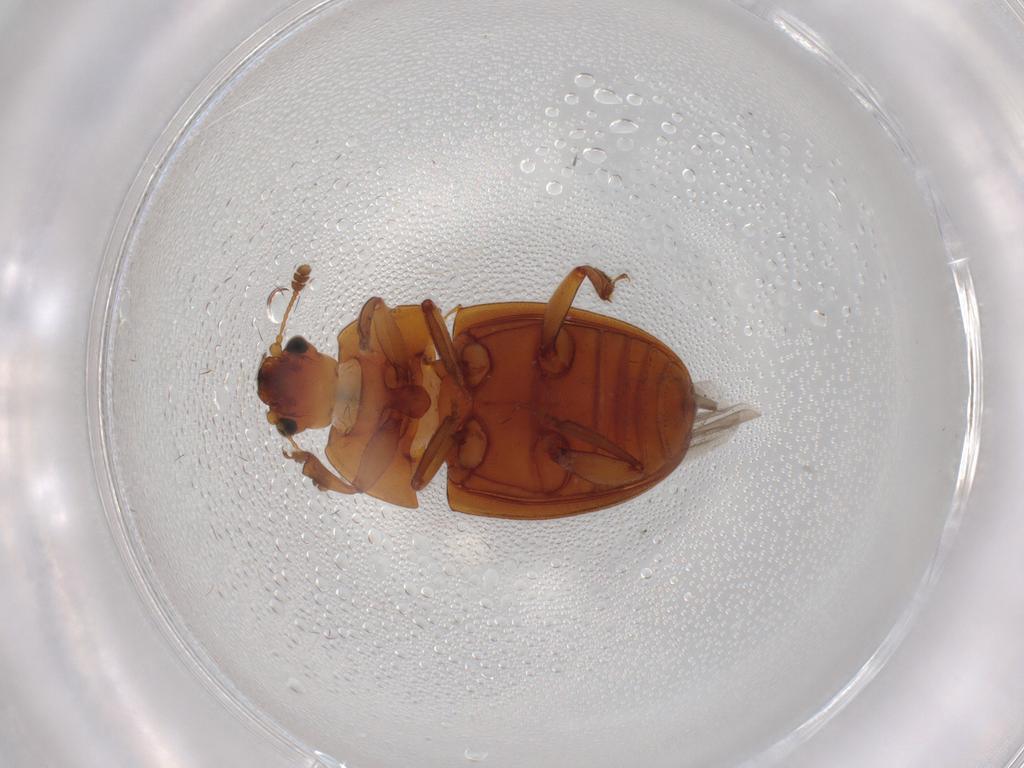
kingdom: Animalia
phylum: Arthropoda
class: Insecta
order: Coleoptera
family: Nitidulidae
